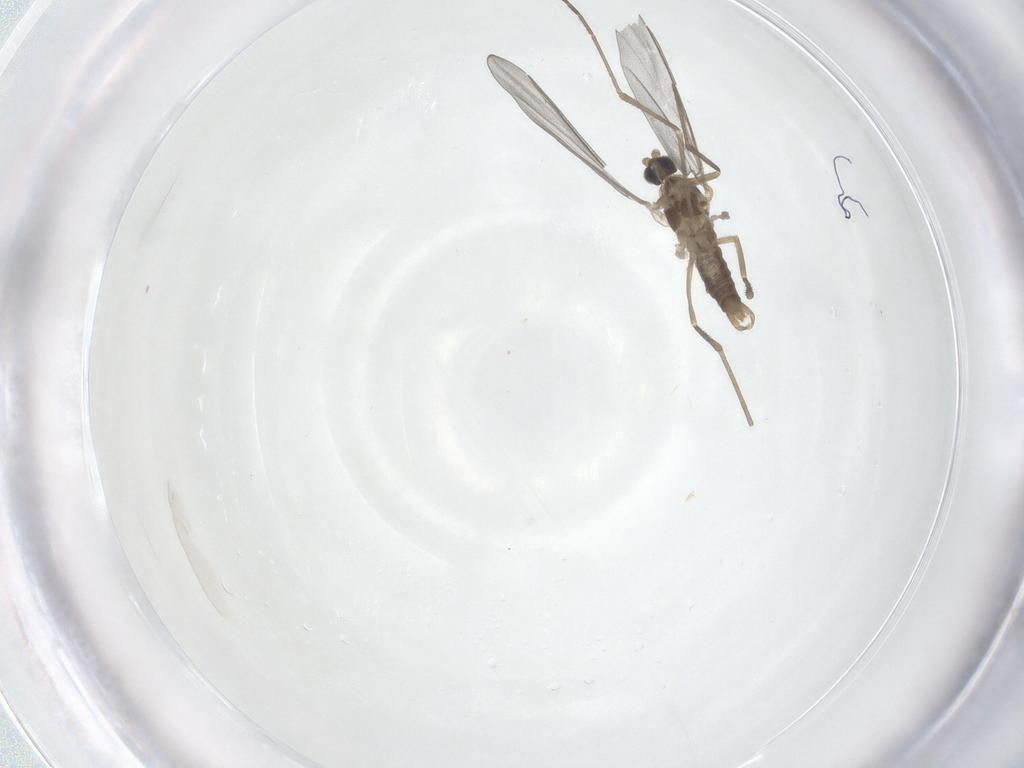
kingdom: Animalia
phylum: Arthropoda
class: Insecta
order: Diptera
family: Cecidomyiidae
